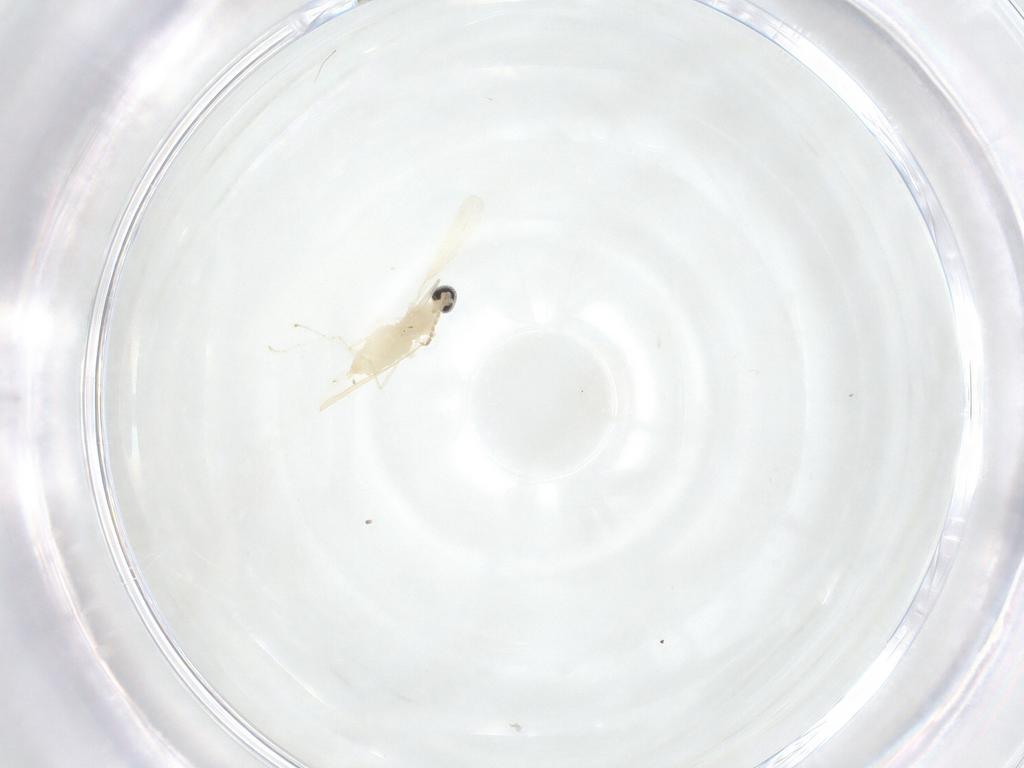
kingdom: Animalia
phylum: Arthropoda
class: Insecta
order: Diptera
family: Cecidomyiidae
